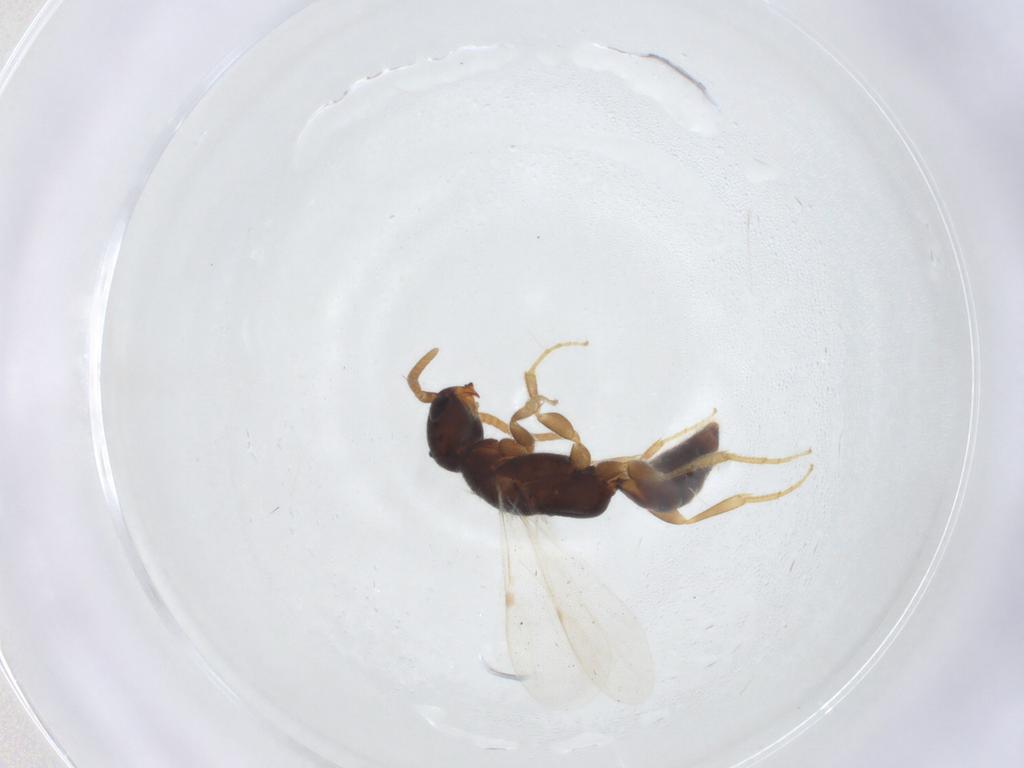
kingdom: Animalia
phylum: Arthropoda
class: Insecta
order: Hymenoptera
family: Bethylidae
